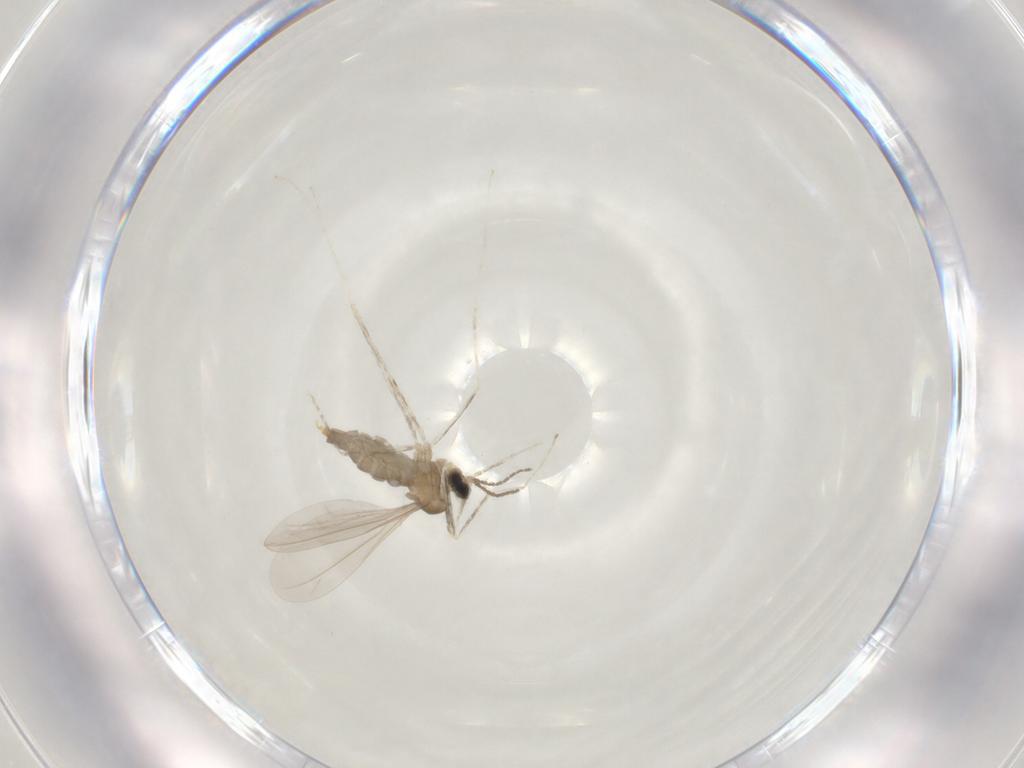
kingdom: Animalia
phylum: Arthropoda
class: Insecta
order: Diptera
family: Cecidomyiidae
